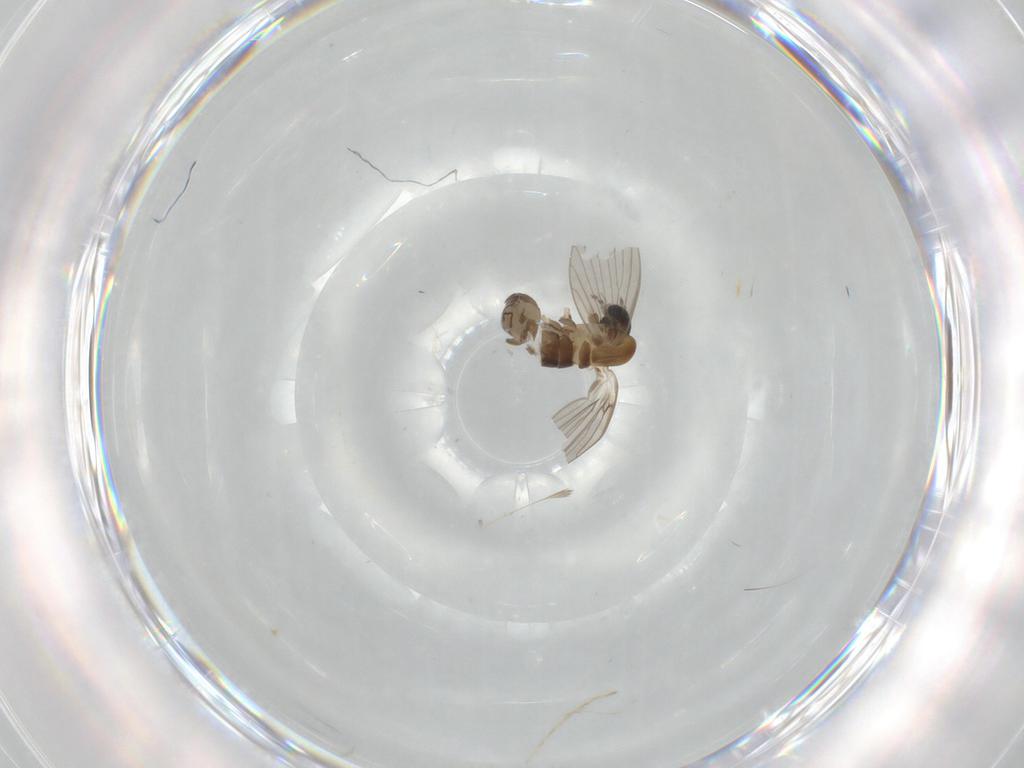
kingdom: Animalia
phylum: Arthropoda
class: Insecta
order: Diptera
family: Psychodidae
